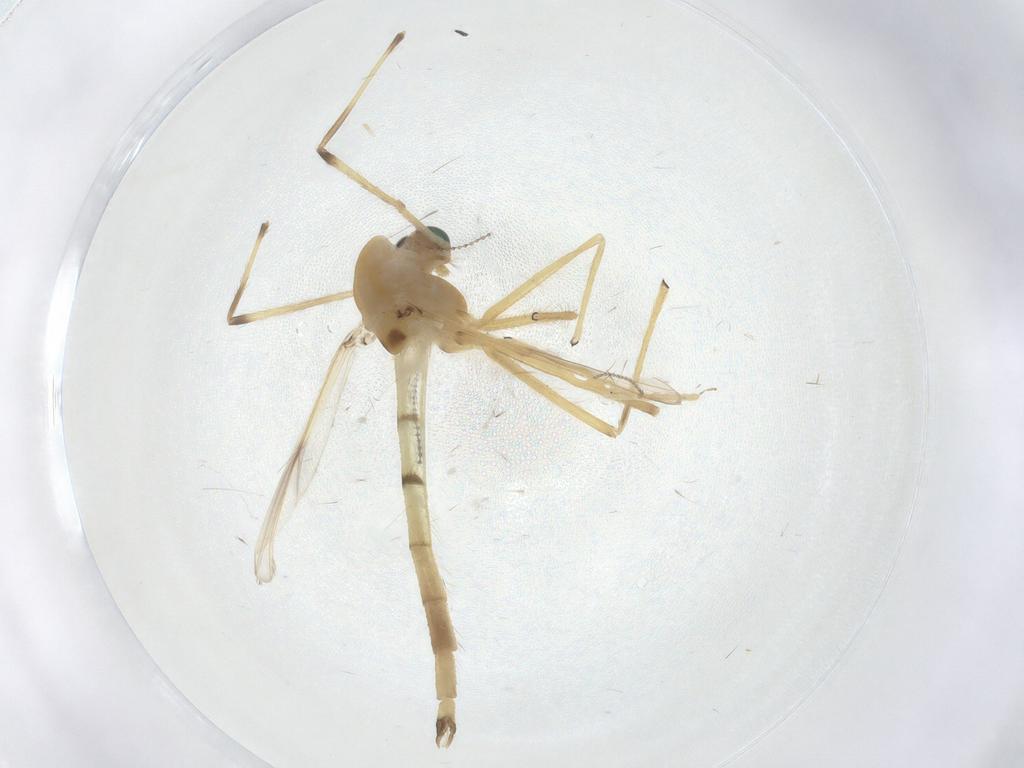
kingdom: Animalia
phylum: Arthropoda
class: Insecta
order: Diptera
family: Chironomidae
